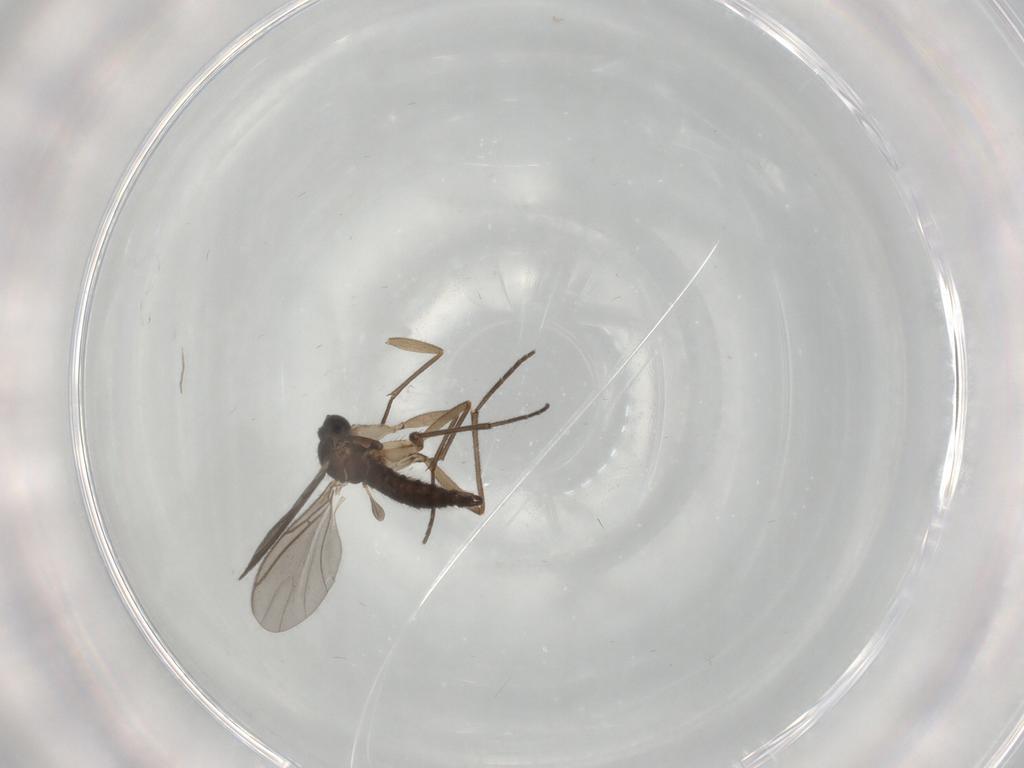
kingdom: Animalia
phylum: Arthropoda
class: Insecta
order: Diptera
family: Sciaridae
